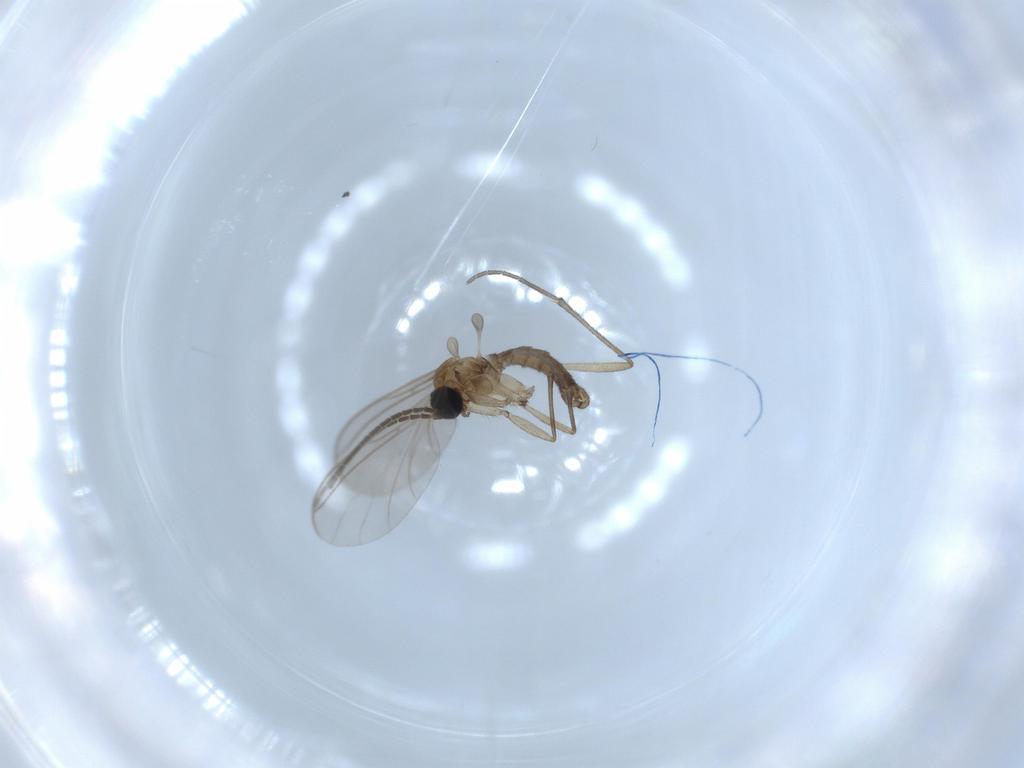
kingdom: Animalia
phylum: Arthropoda
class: Insecta
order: Diptera
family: Sciaridae
